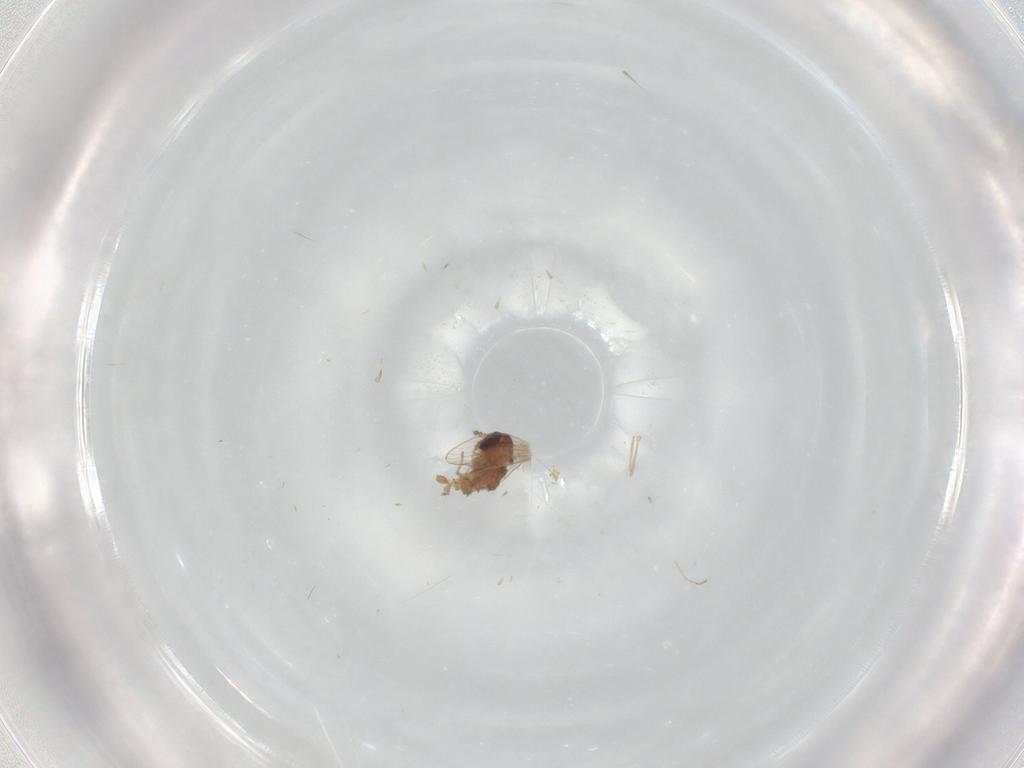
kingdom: Animalia
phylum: Arthropoda
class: Insecta
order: Diptera
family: Psychodidae
